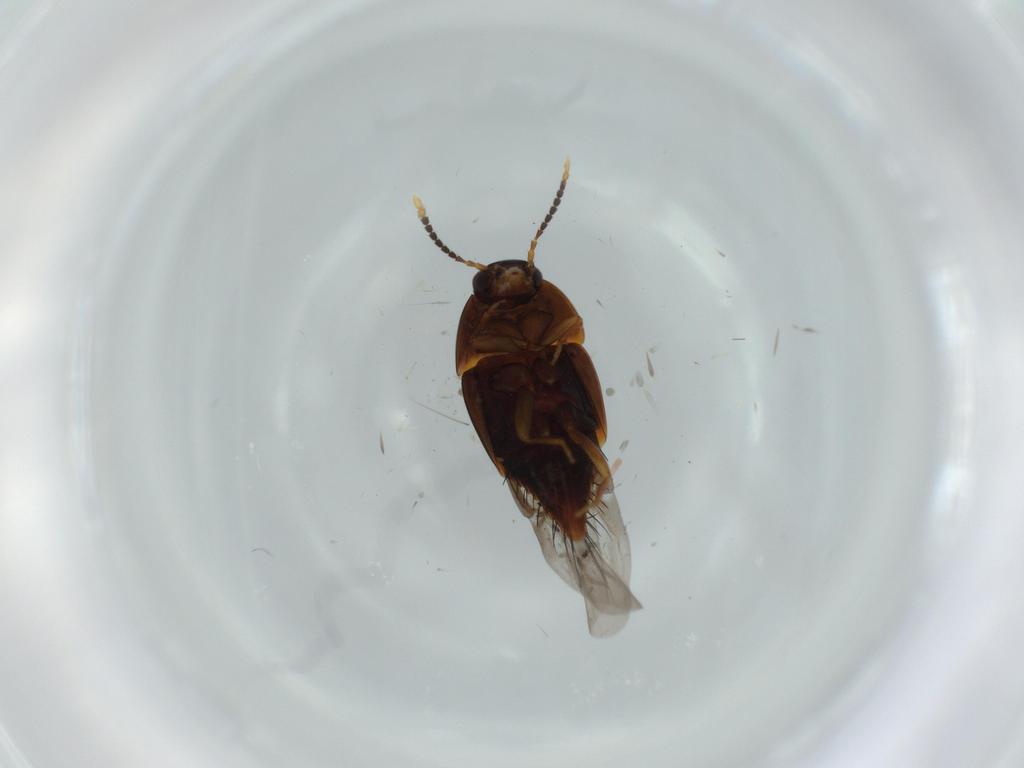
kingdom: Animalia
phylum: Arthropoda
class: Insecta
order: Coleoptera
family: Staphylinidae
